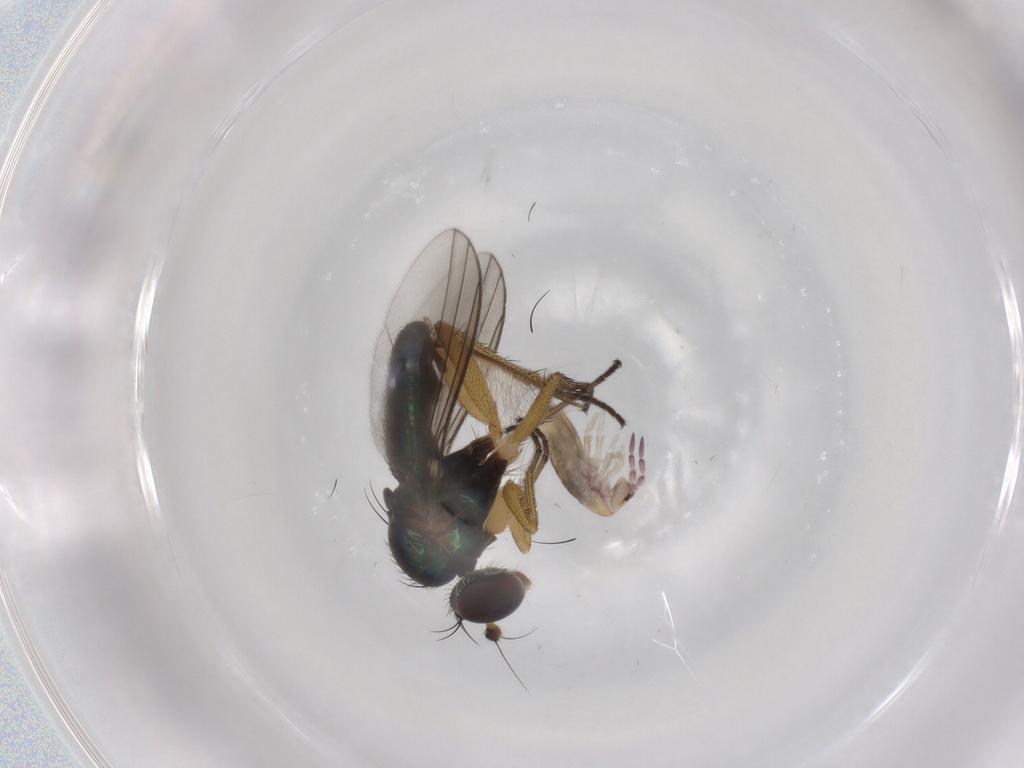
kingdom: Animalia
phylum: Arthropoda
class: Collembola
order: Entomobryomorpha
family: Entomobryidae
